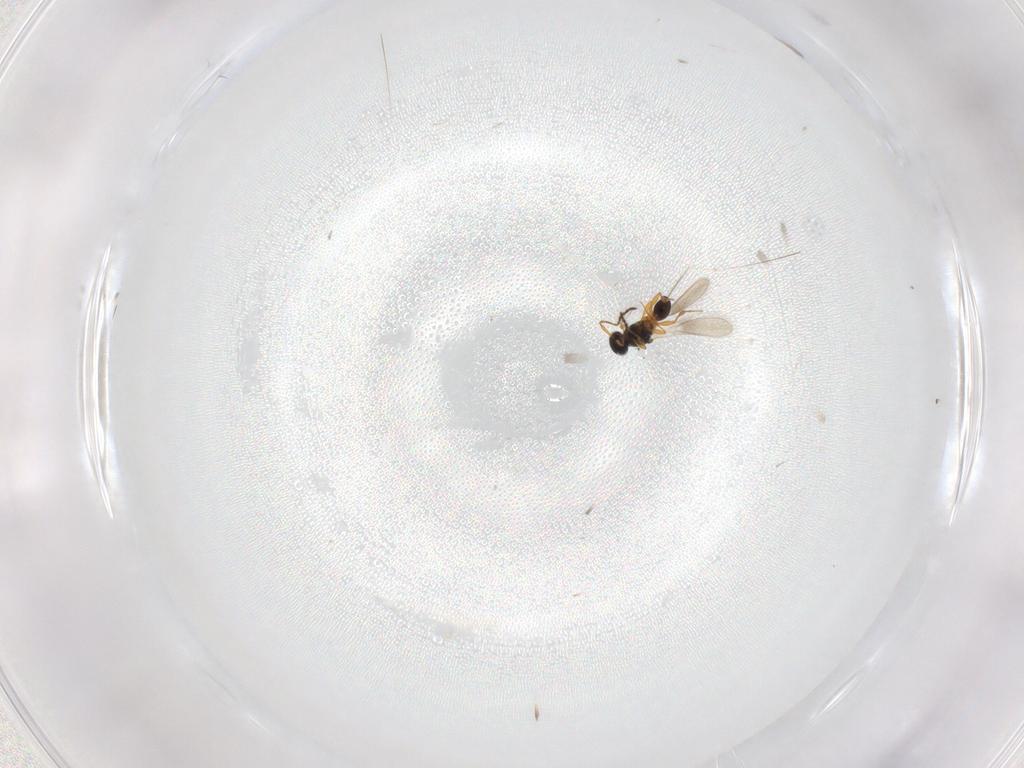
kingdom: Animalia
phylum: Arthropoda
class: Insecta
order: Hymenoptera
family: Platygastridae
